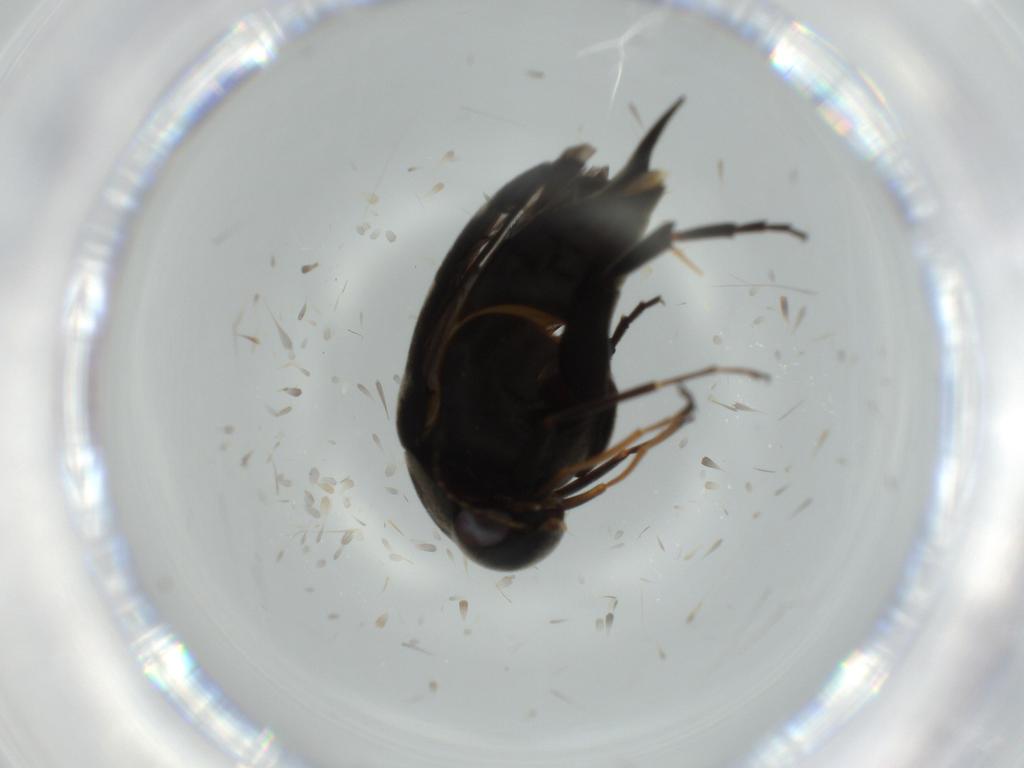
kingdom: Animalia
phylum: Arthropoda
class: Insecta
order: Coleoptera
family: Mordellidae
